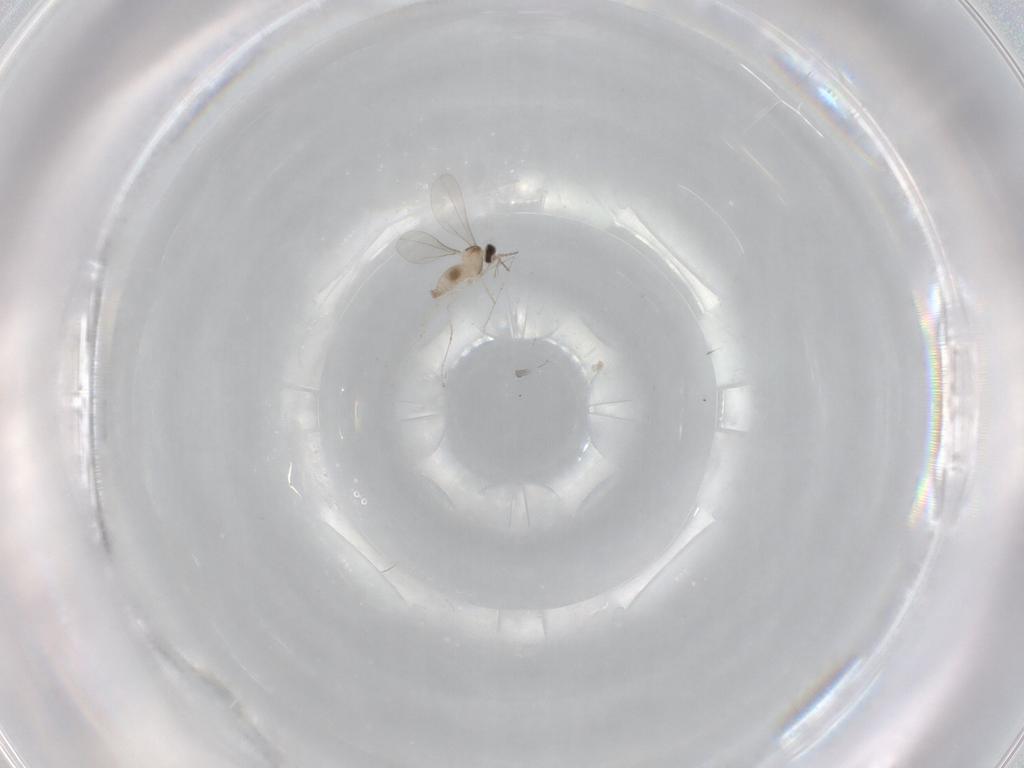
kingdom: Animalia
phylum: Arthropoda
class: Insecta
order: Diptera
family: Cecidomyiidae
